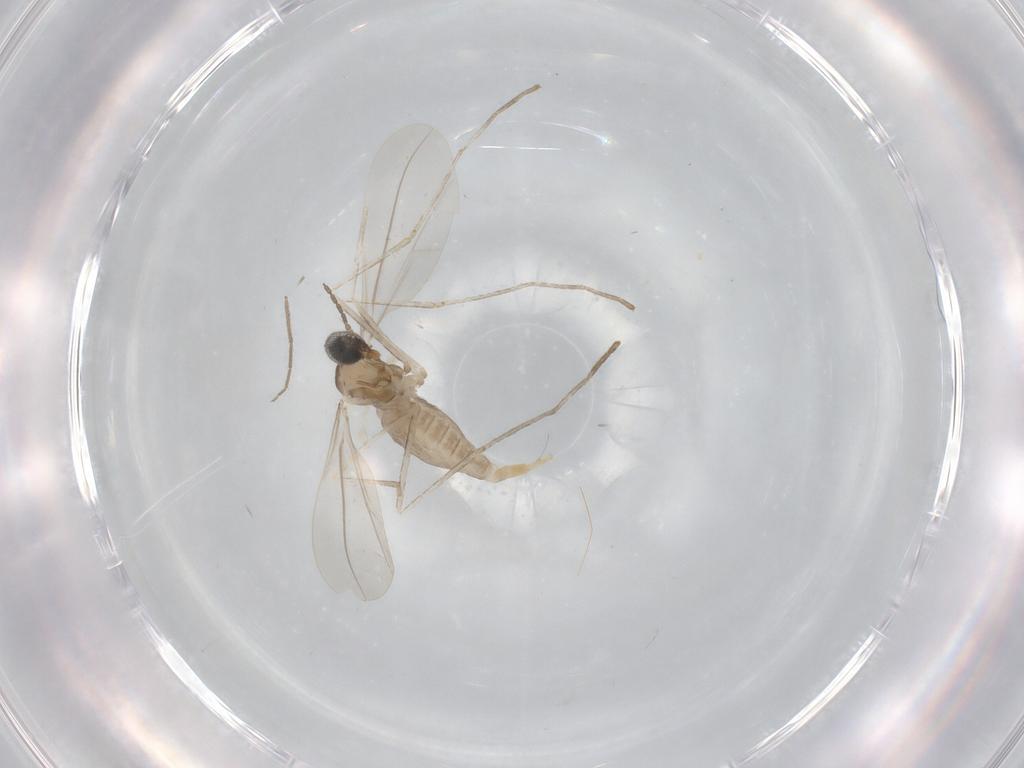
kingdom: Animalia
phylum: Arthropoda
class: Insecta
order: Diptera
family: Cecidomyiidae
